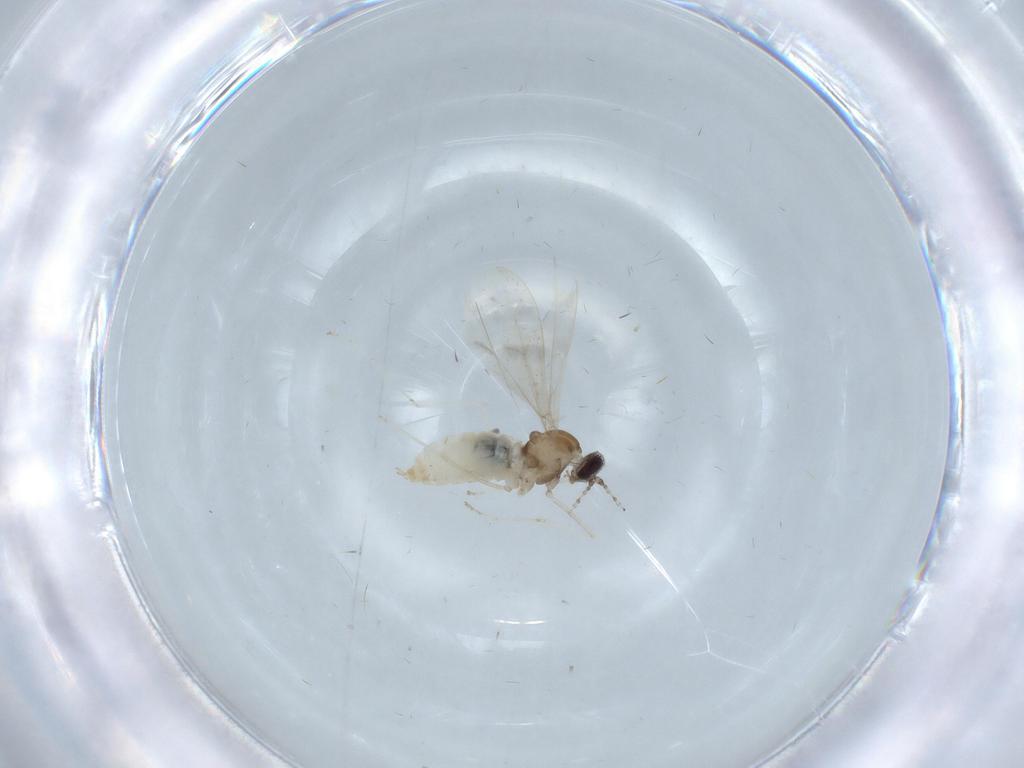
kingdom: Animalia
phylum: Arthropoda
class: Insecta
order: Diptera
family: Cecidomyiidae
